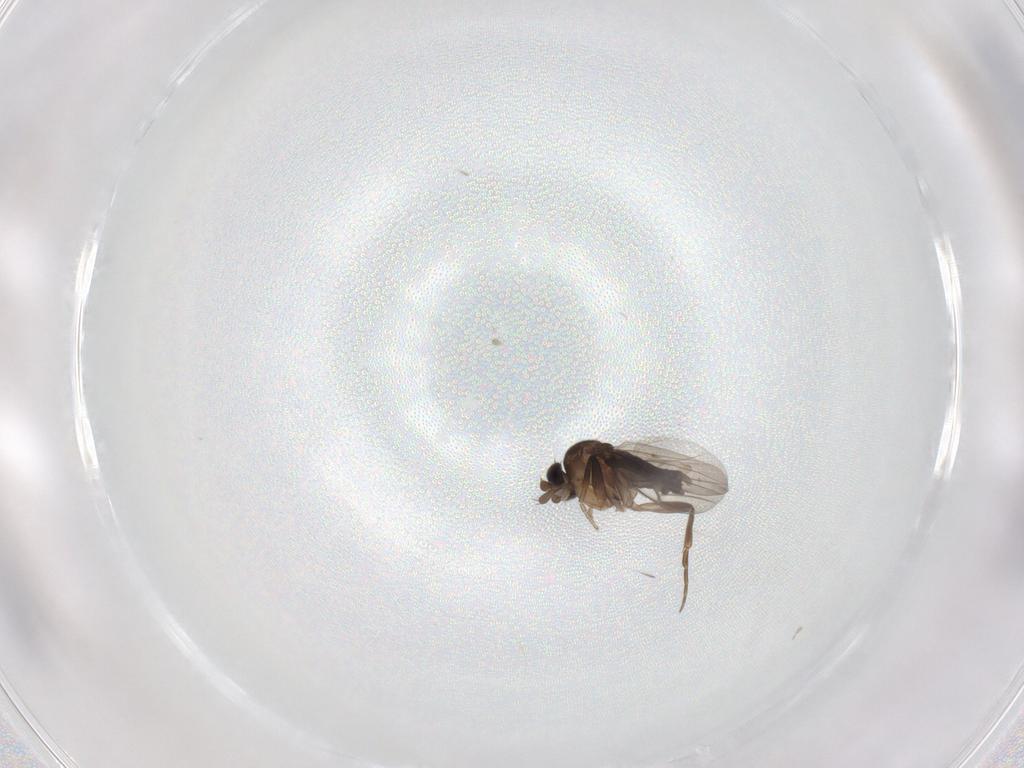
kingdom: Animalia
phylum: Arthropoda
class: Insecta
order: Diptera
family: Phoridae
